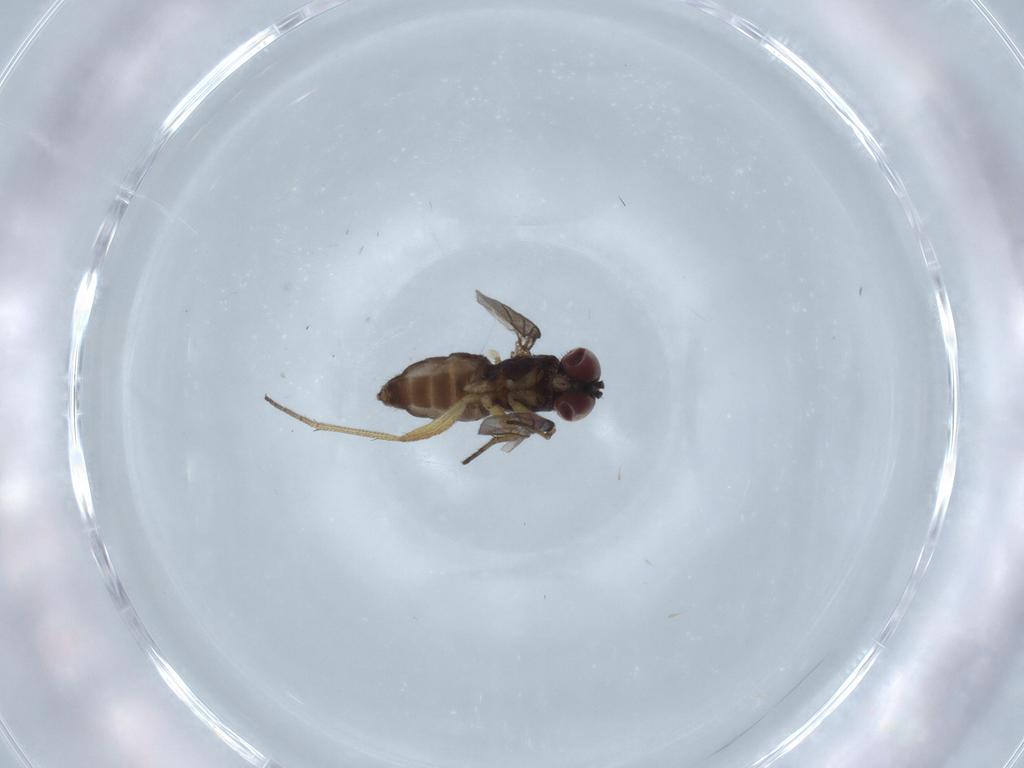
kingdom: Animalia
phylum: Arthropoda
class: Insecta
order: Diptera
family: Dolichopodidae
